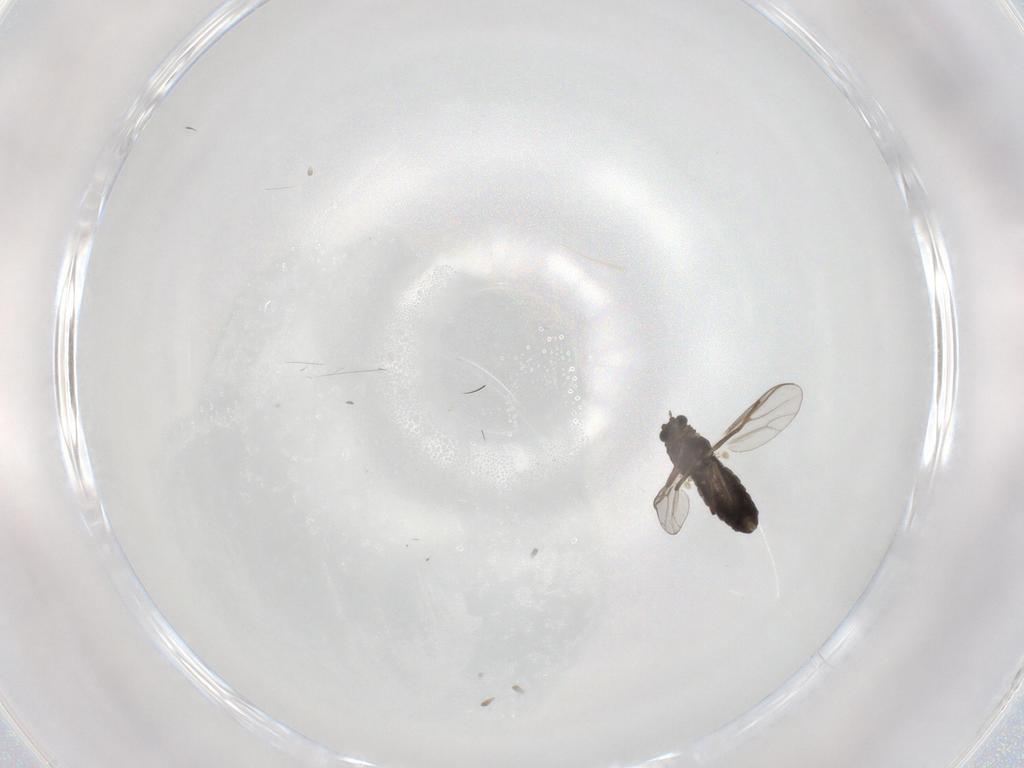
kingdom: Animalia
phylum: Arthropoda
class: Insecta
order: Diptera
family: Chironomidae
